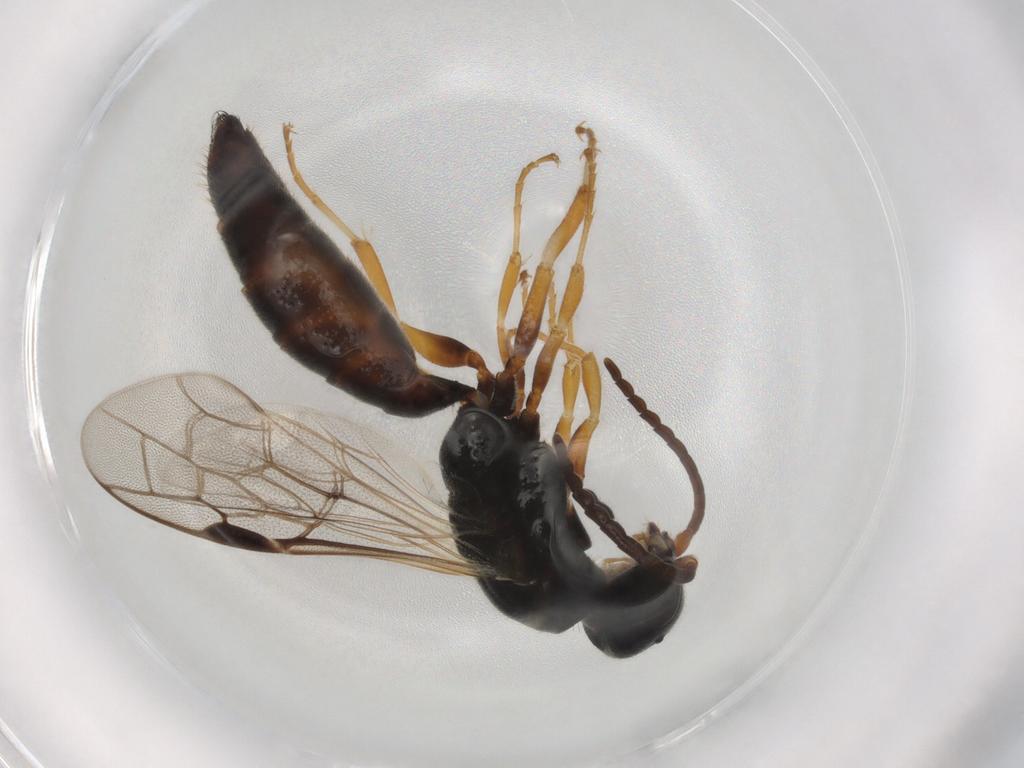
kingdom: Animalia
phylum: Arthropoda
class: Insecta
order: Hymenoptera
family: Thynnidae
